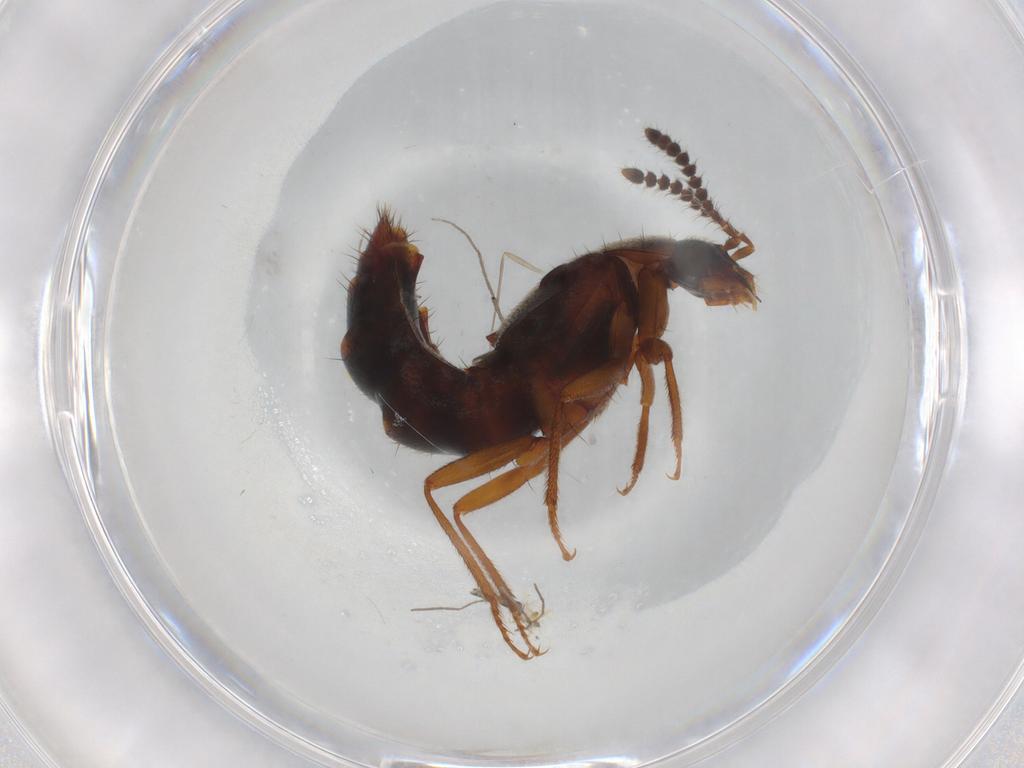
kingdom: Animalia
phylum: Arthropoda
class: Insecta
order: Coleoptera
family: Staphylinidae
